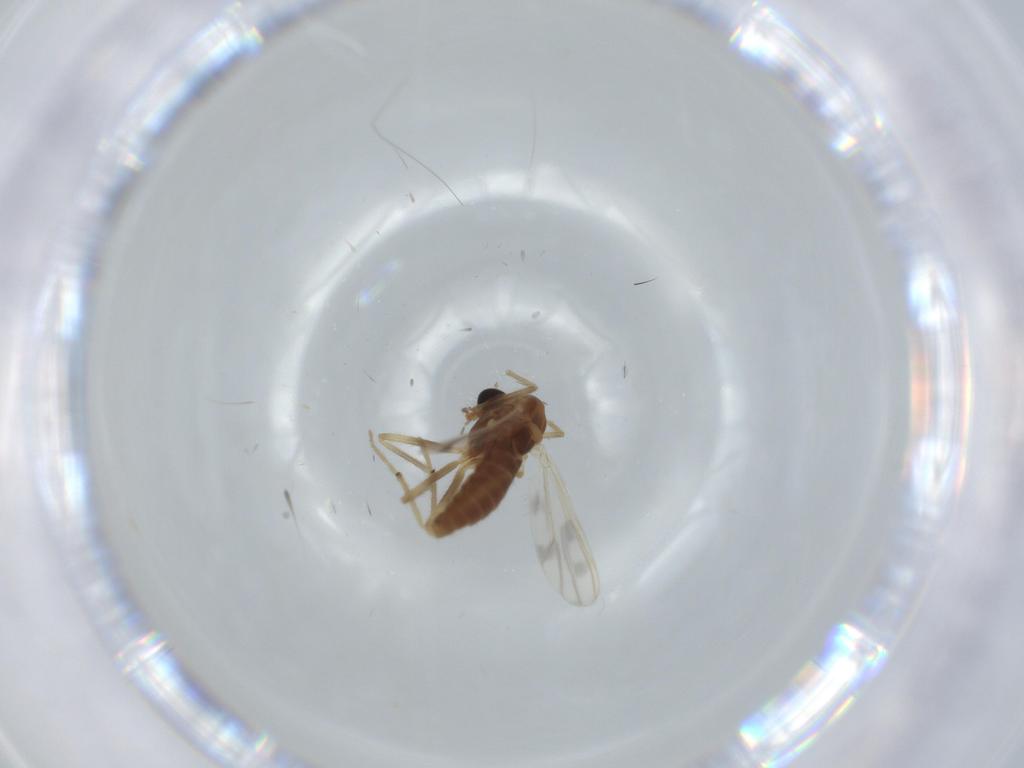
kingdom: Animalia
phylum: Arthropoda
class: Insecta
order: Diptera
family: Chironomidae
